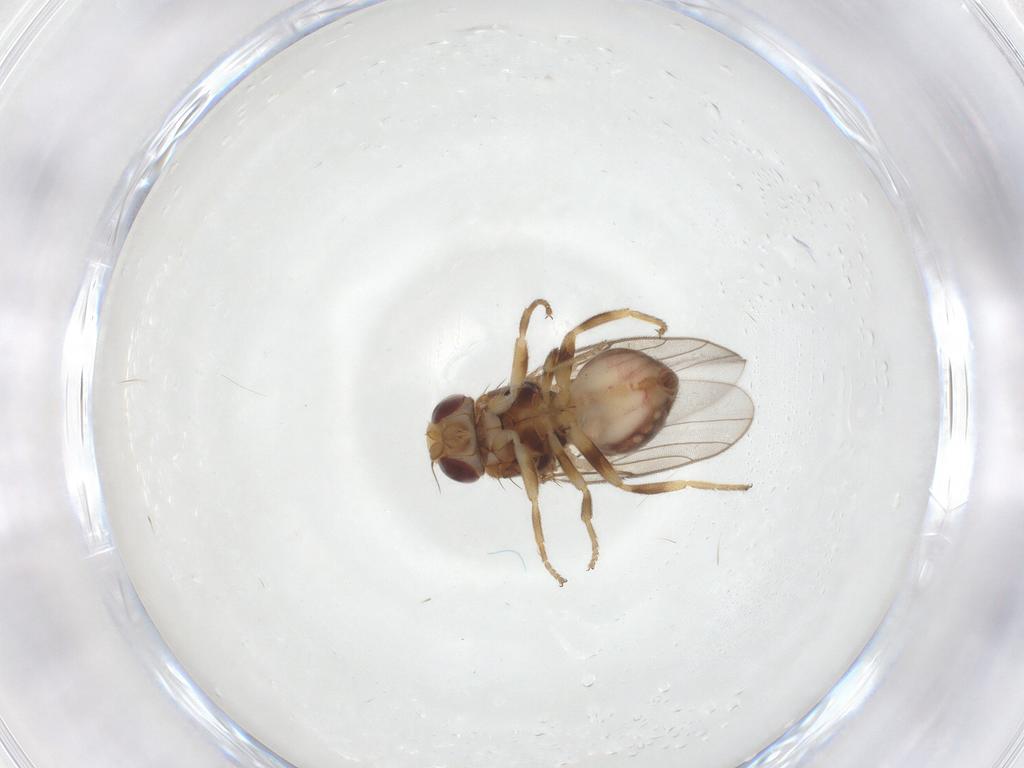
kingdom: Animalia
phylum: Arthropoda
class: Insecta
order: Diptera
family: Chloropidae
